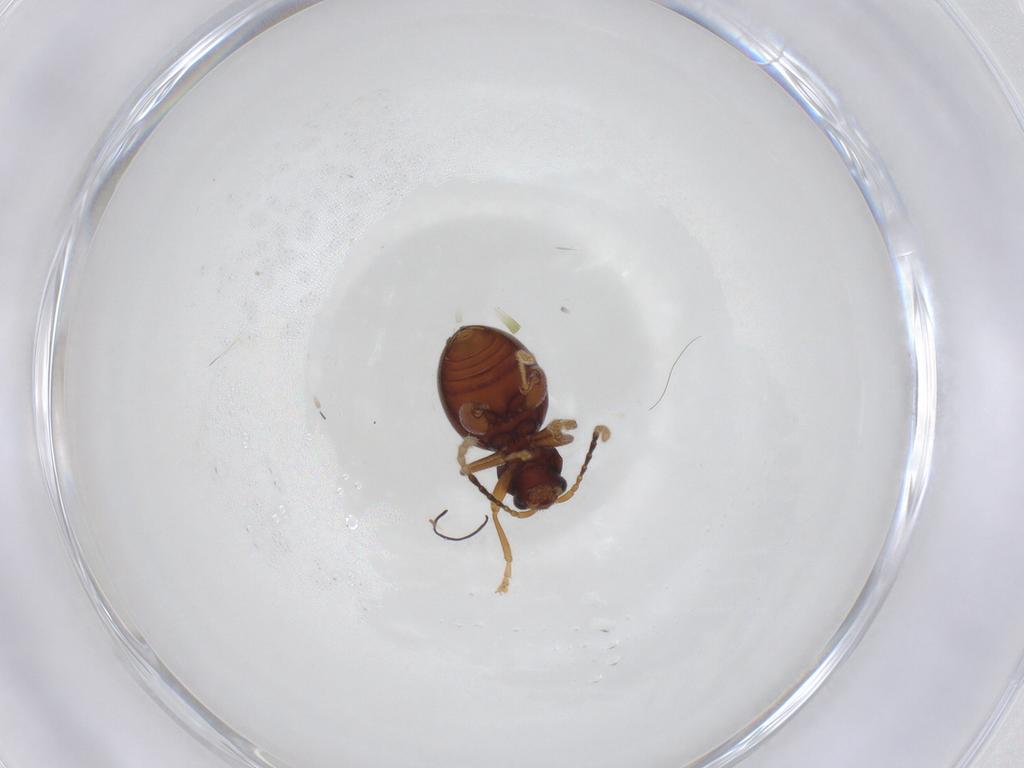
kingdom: Animalia
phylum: Arthropoda
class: Insecta
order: Coleoptera
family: Chrysomelidae
